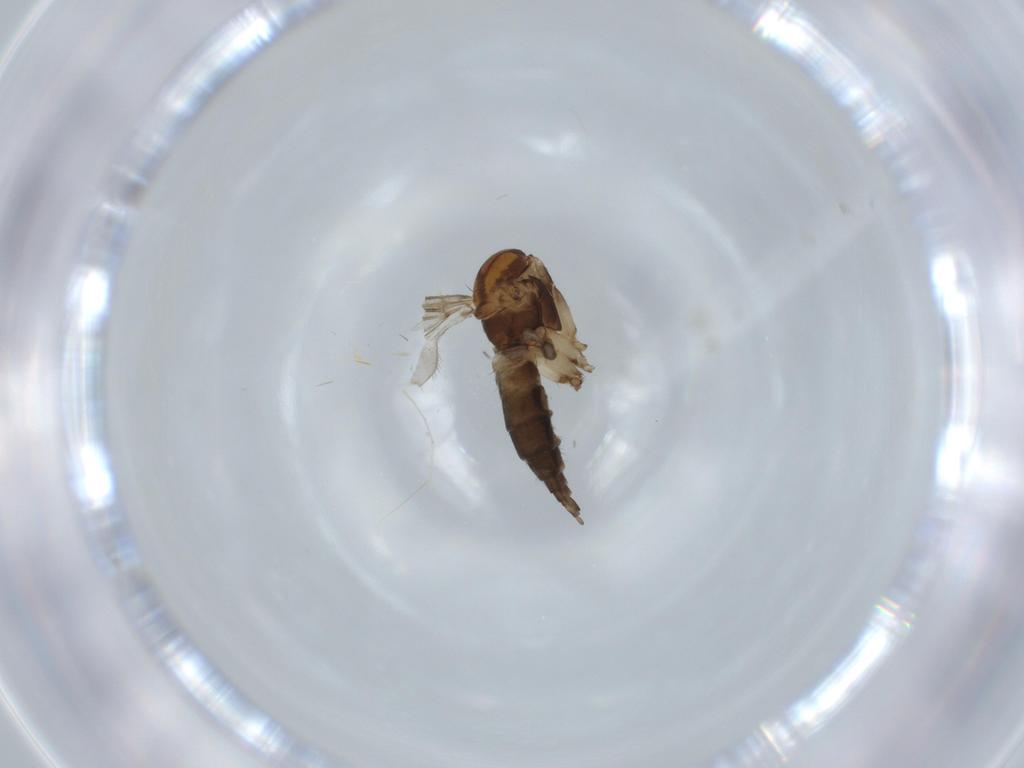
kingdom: Animalia
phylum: Arthropoda
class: Insecta
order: Diptera
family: Sciaridae
